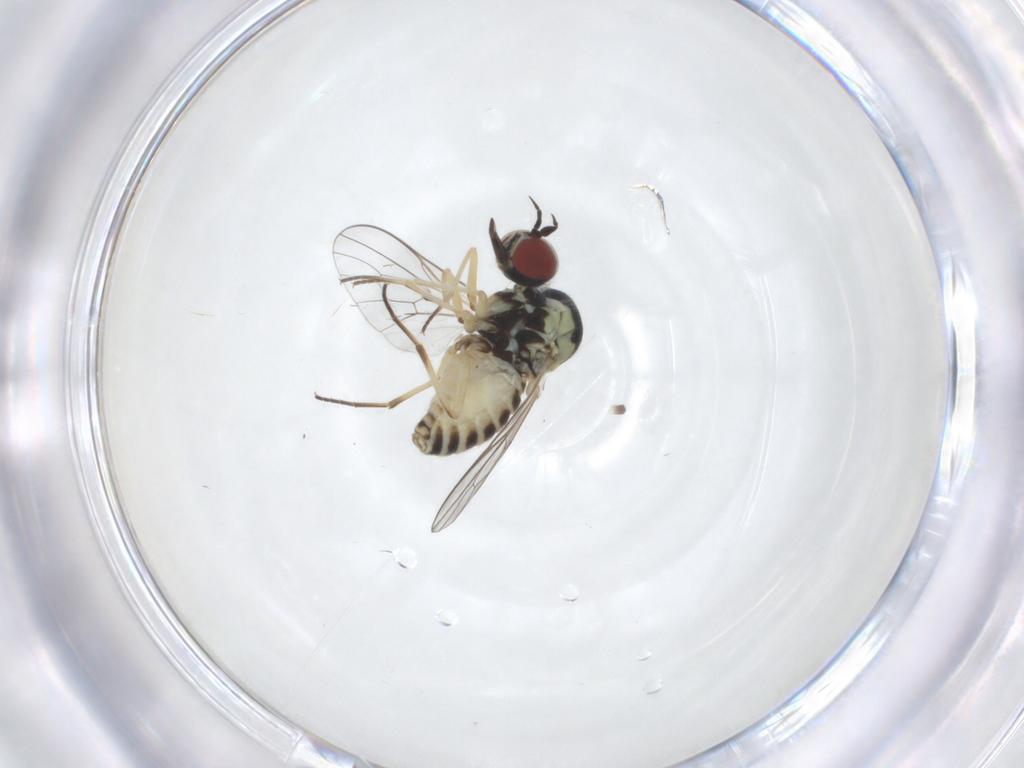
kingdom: Animalia
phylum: Arthropoda
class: Insecta
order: Diptera
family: Mythicomyiidae
